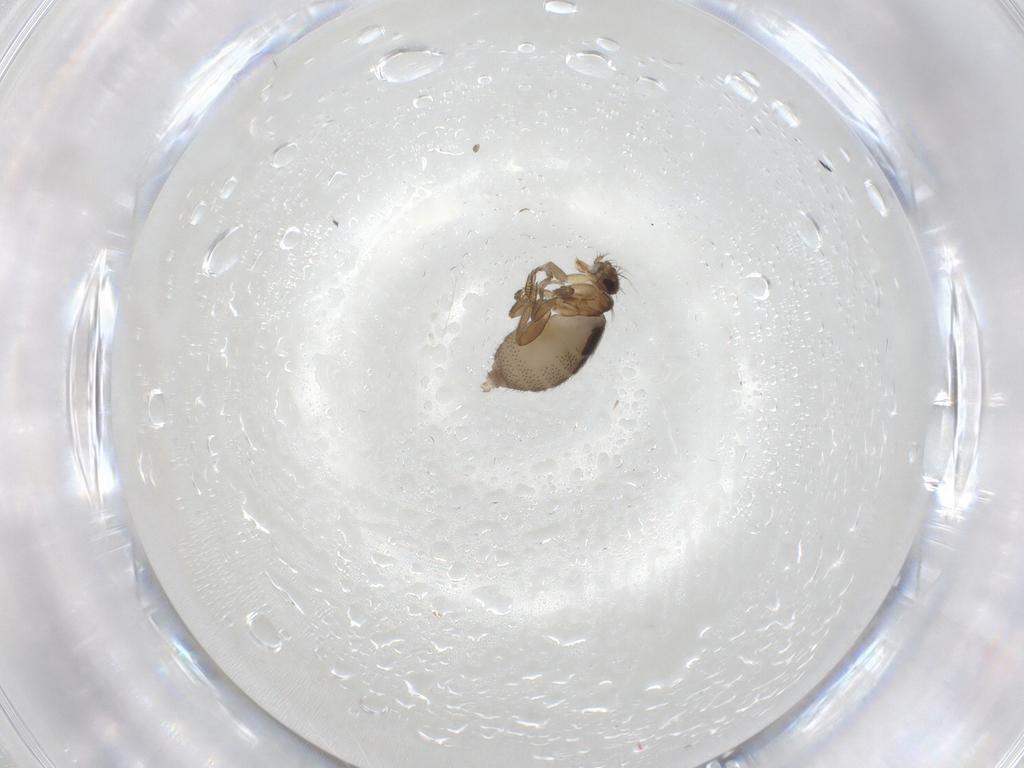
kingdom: Animalia
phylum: Arthropoda
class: Insecta
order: Diptera
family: Phoridae
